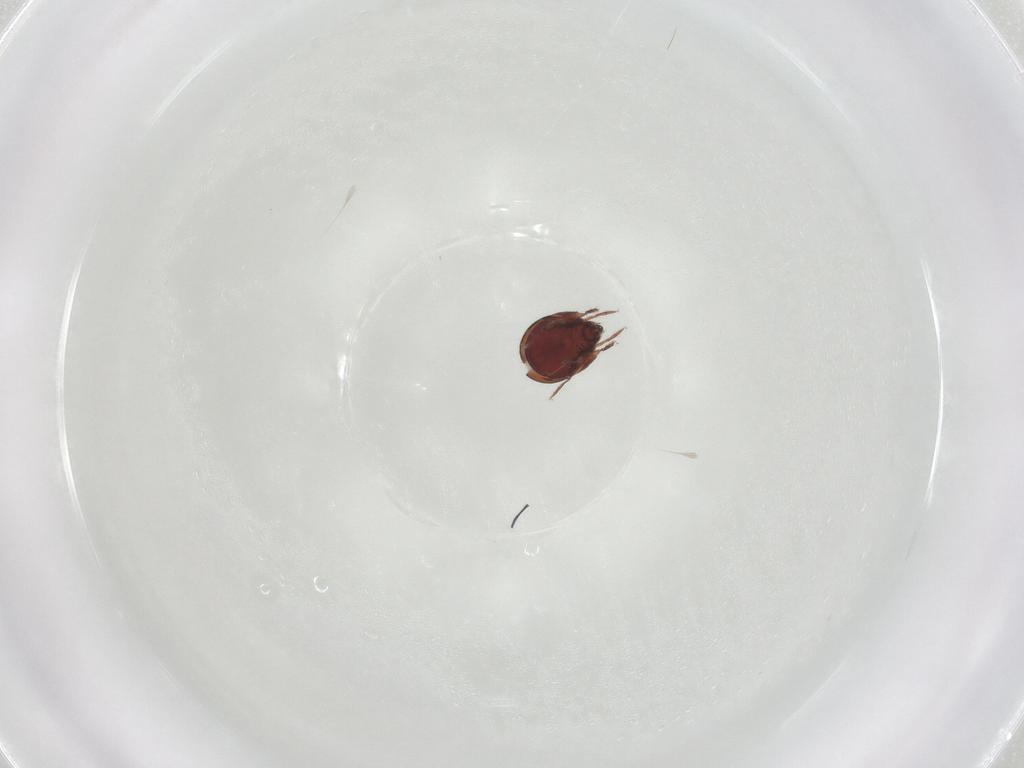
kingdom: Animalia
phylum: Arthropoda
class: Arachnida
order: Sarcoptiformes
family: Humerobatidae
